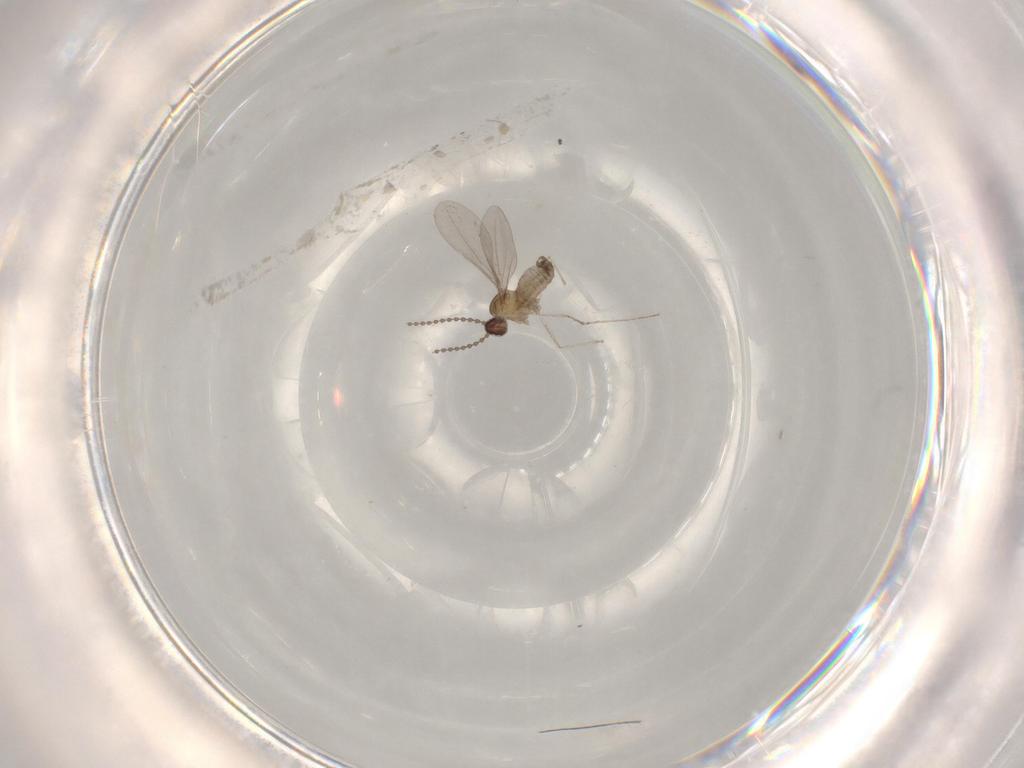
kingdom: Animalia
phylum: Arthropoda
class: Insecta
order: Diptera
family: Cecidomyiidae
